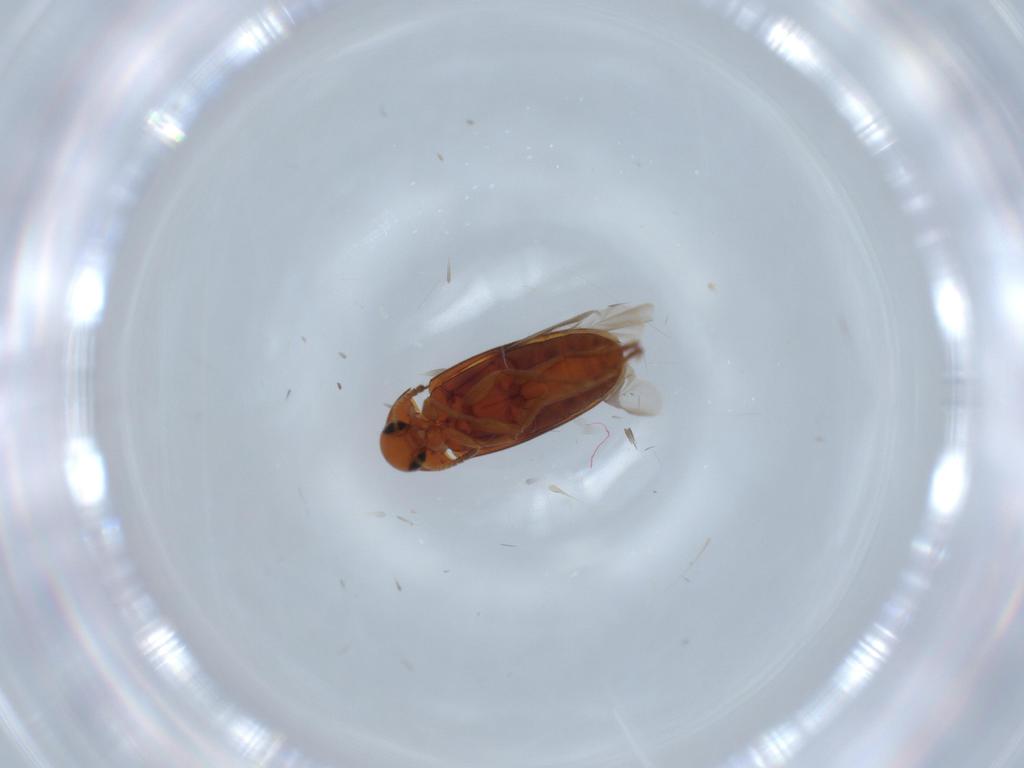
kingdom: Animalia
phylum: Arthropoda
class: Insecta
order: Coleoptera
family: Scraptiidae
